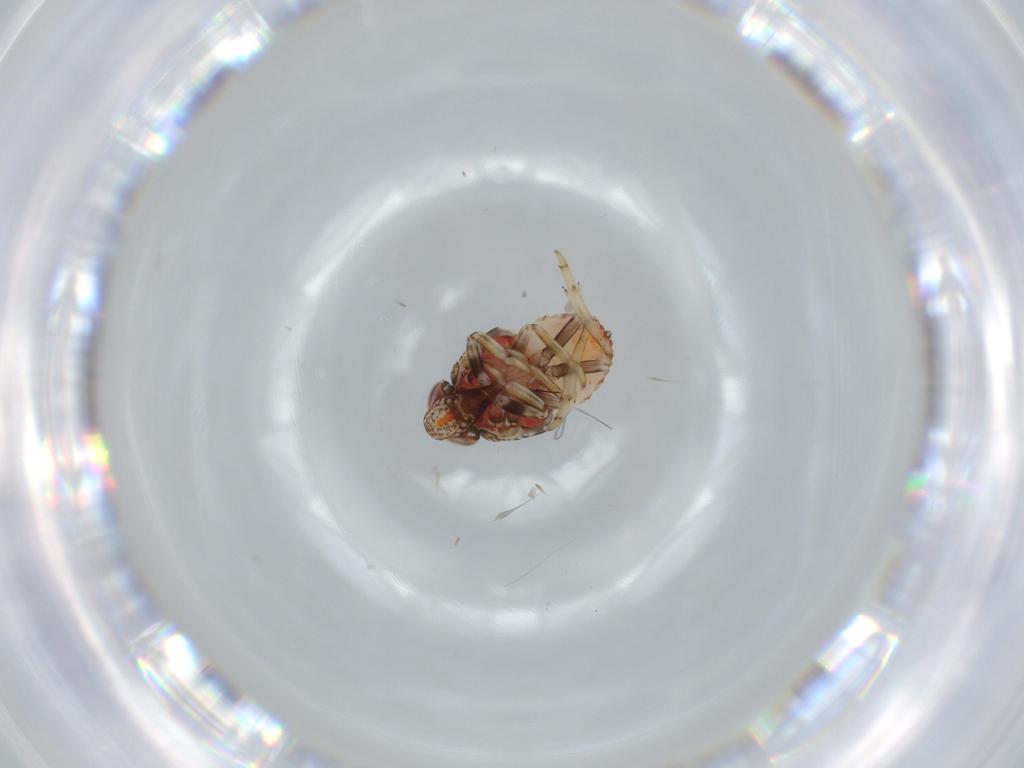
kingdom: Animalia
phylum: Arthropoda
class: Insecta
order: Hemiptera
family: Issidae
